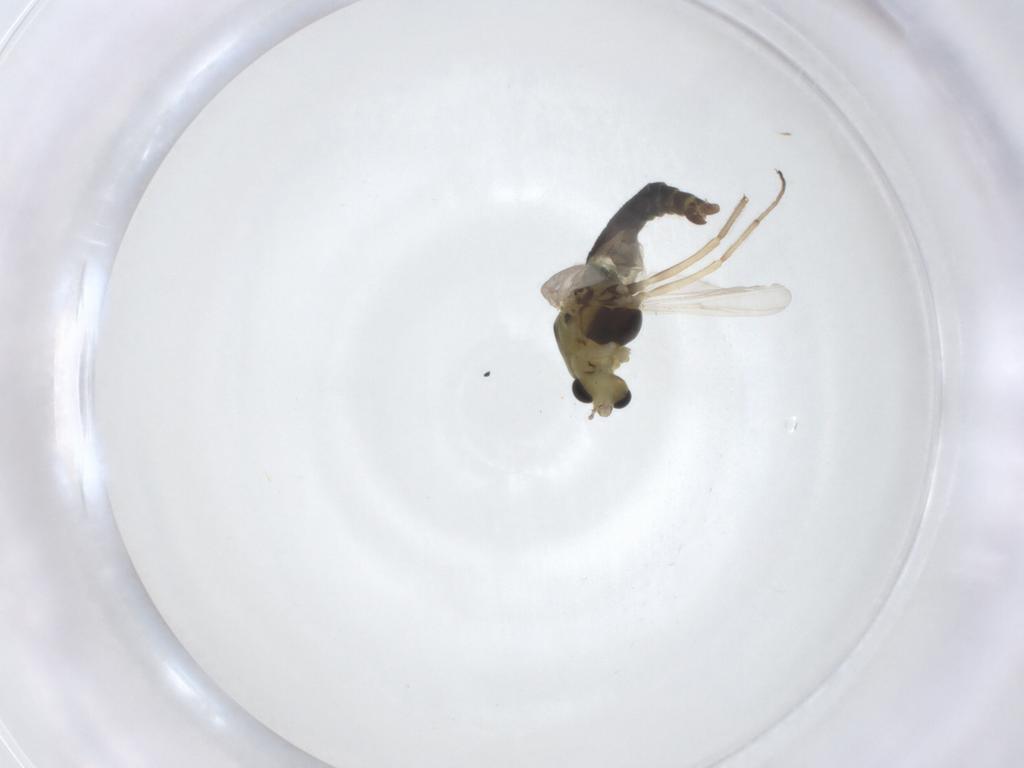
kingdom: Animalia
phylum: Arthropoda
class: Insecta
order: Diptera
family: Chironomidae
